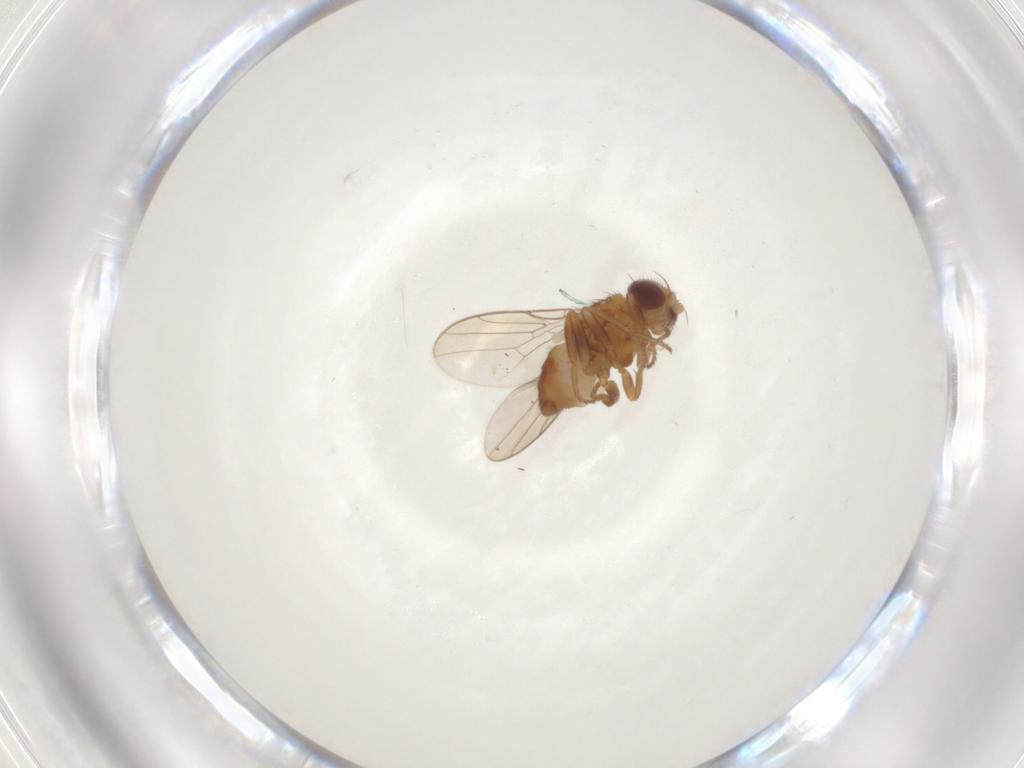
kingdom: Animalia
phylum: Arthropoda
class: Insecta
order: Diptera
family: Chloropidae
